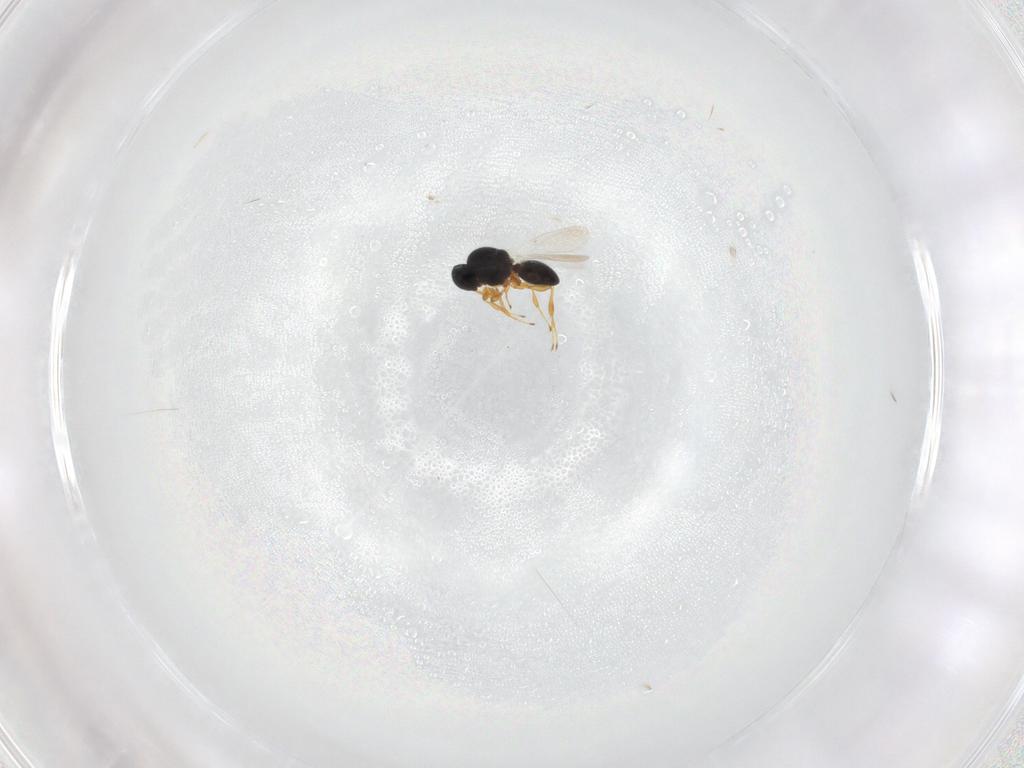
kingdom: Animalia
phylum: Arthropoda
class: Insecta
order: Hymenoptera
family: Platygastridae
